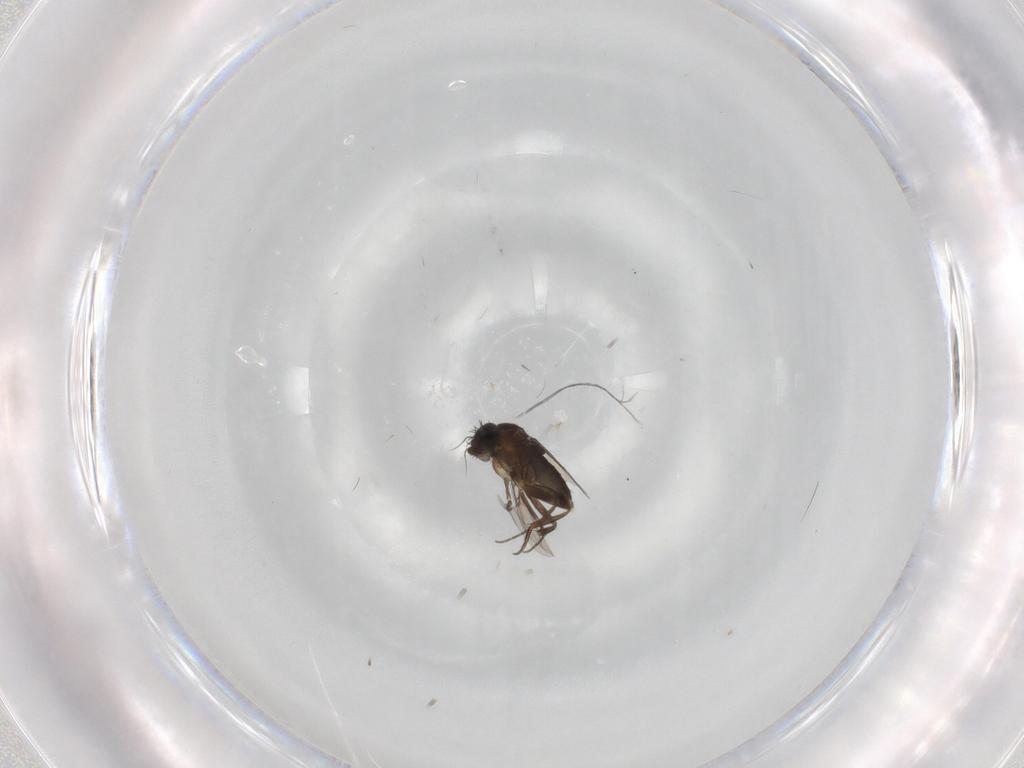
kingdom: Animalia
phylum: Arthropoda
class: Insecta
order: Diptera
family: Phoridae
